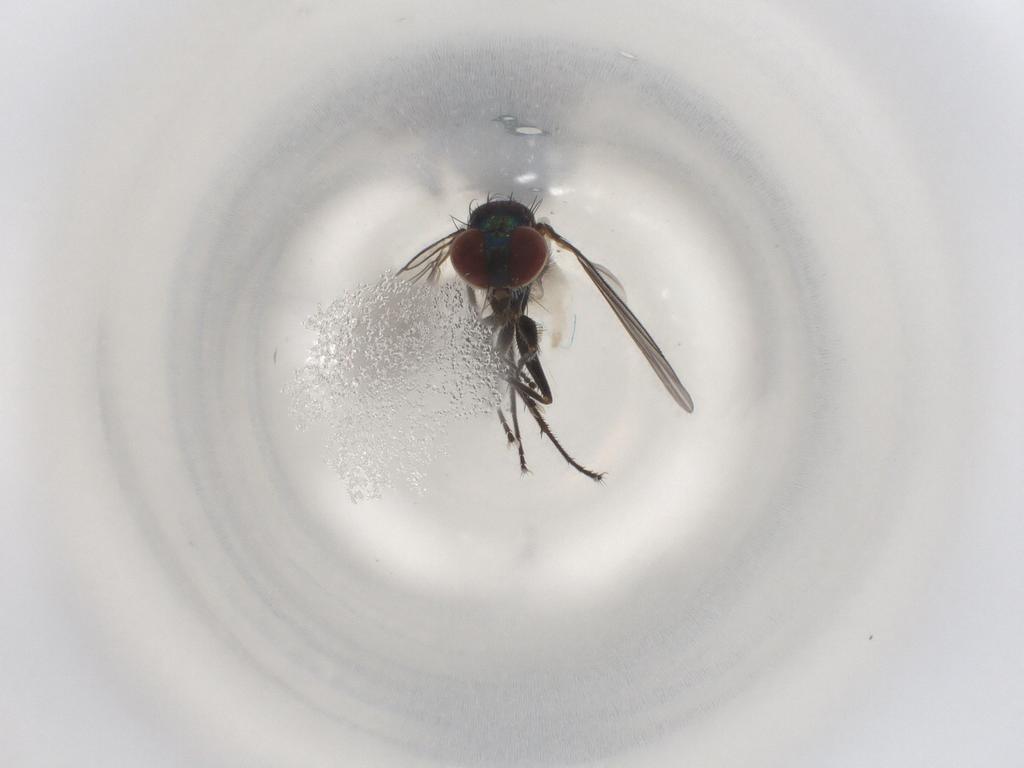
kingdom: Animalia
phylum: Arthropoda
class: Insecta
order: Diptera
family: Dolichopodidae
